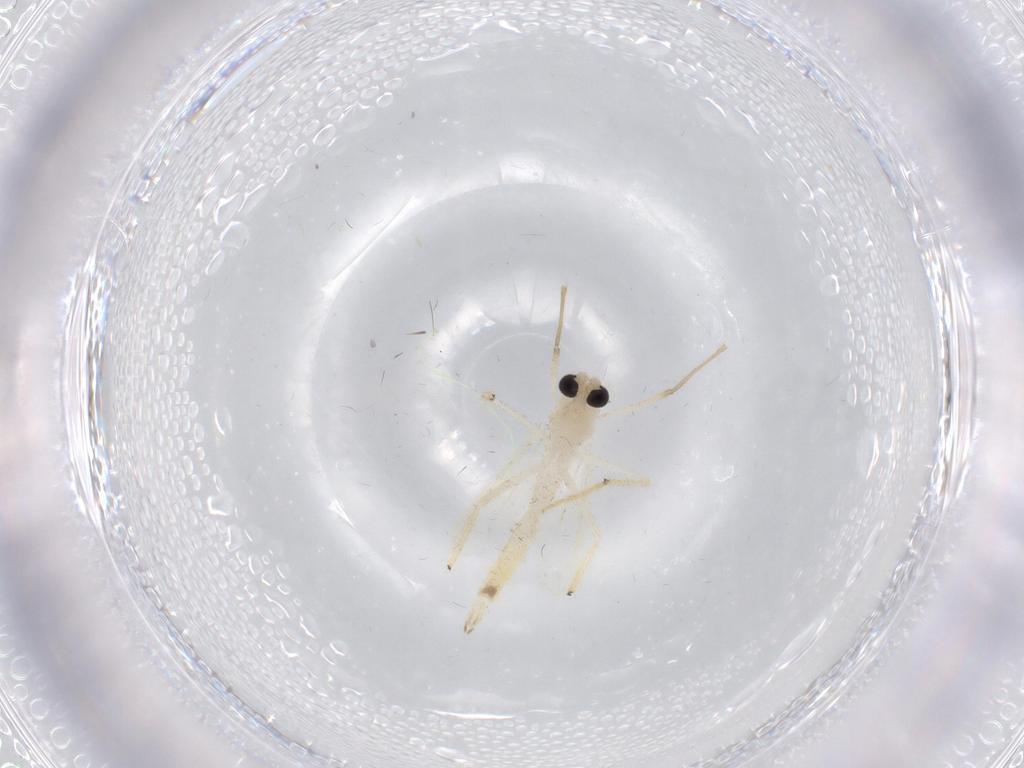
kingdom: Animalia
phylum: Arthropoda
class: Insecta
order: Diptera
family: Chironomidae
